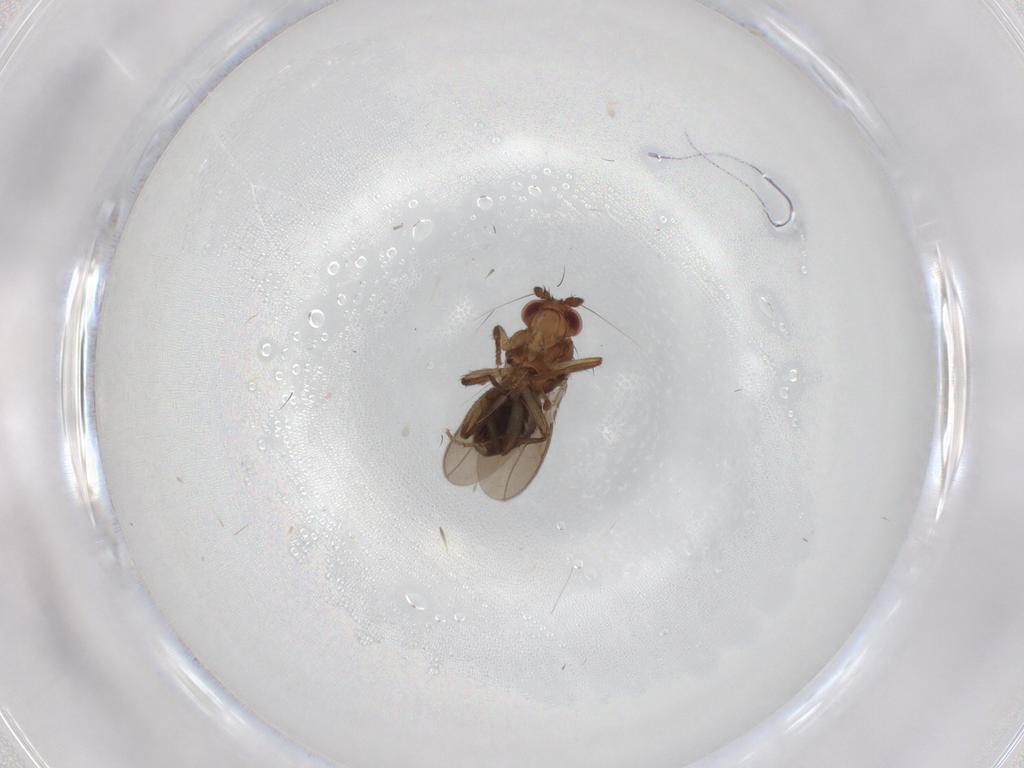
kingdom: Animalia
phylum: Arthropoda
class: Insecta
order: Diptera
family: Sphaeroceridae
